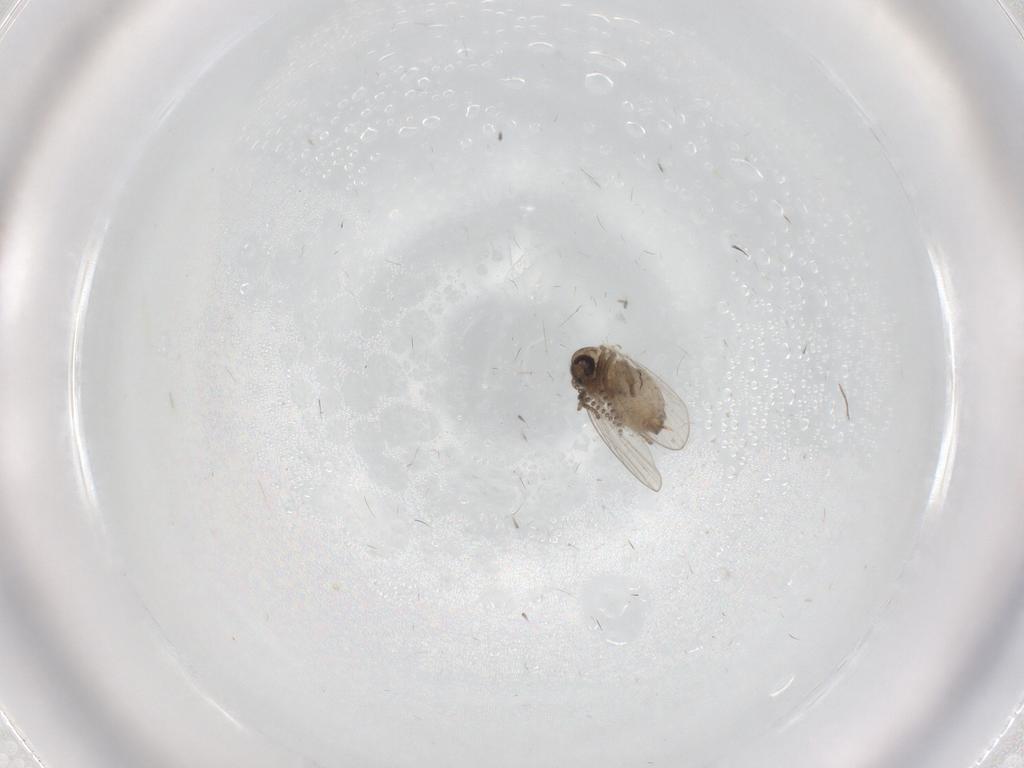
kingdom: Animalia
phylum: Arthropoda
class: Insecta
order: Diptera
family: Psychodidae
